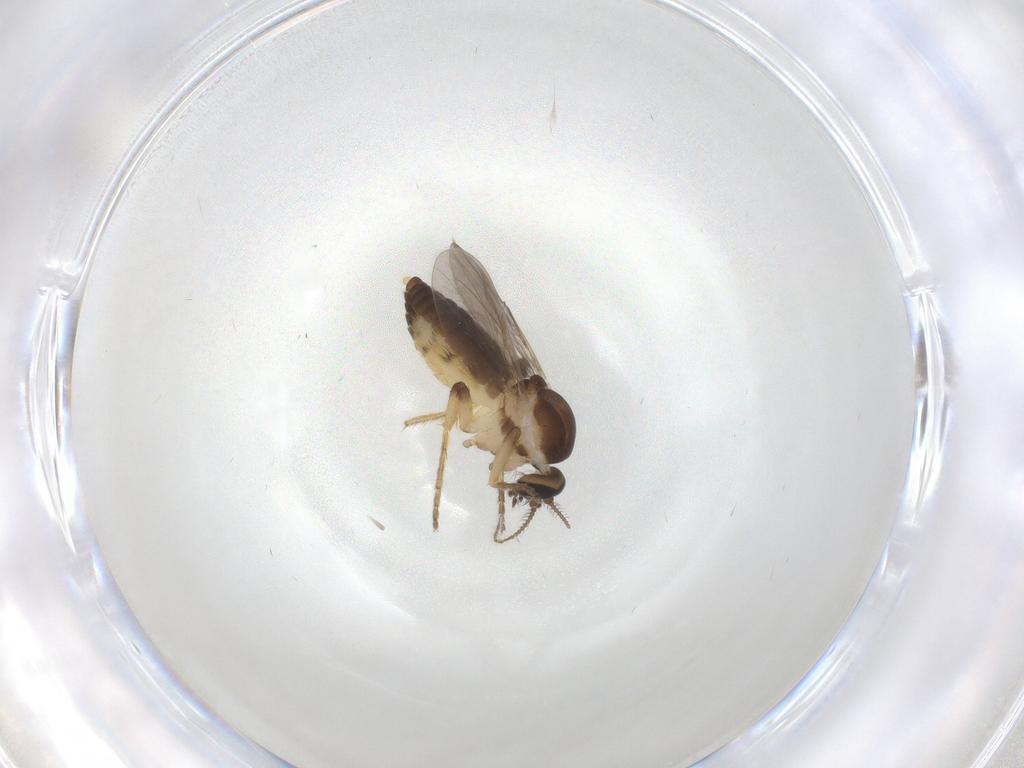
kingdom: Animalia
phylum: Arthropoda
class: Insecta
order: Diptera
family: Ceratopogonidae
